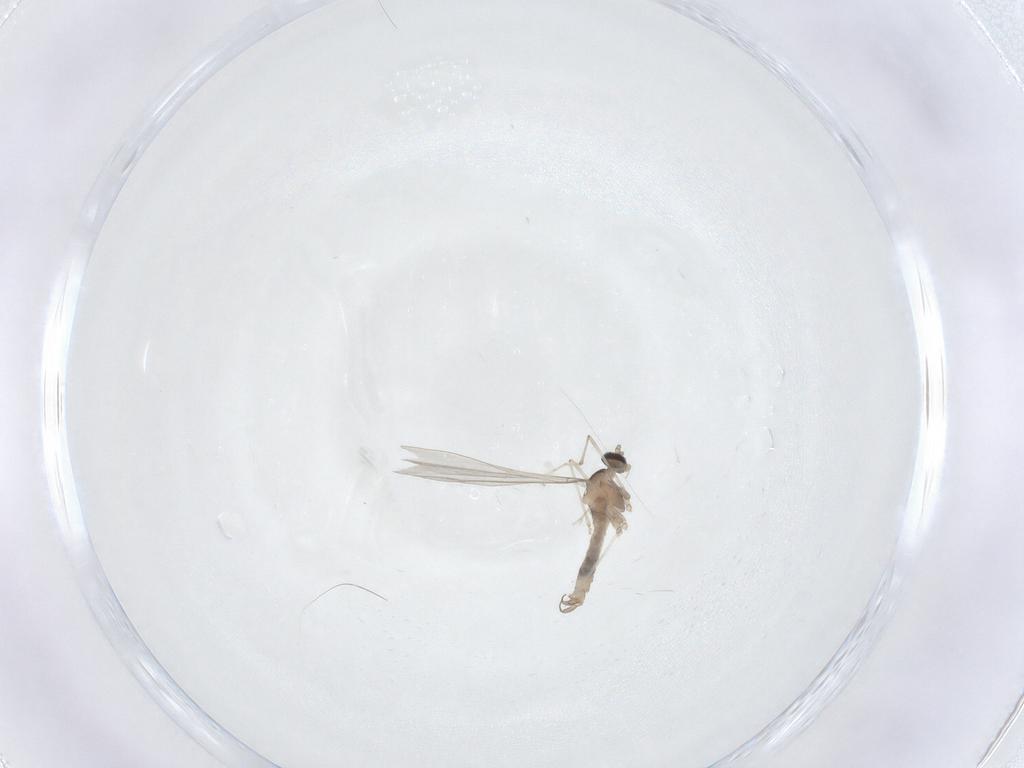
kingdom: Animalia
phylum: Arthropoda
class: Insecta
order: Diptera
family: Cecidomyiidae
